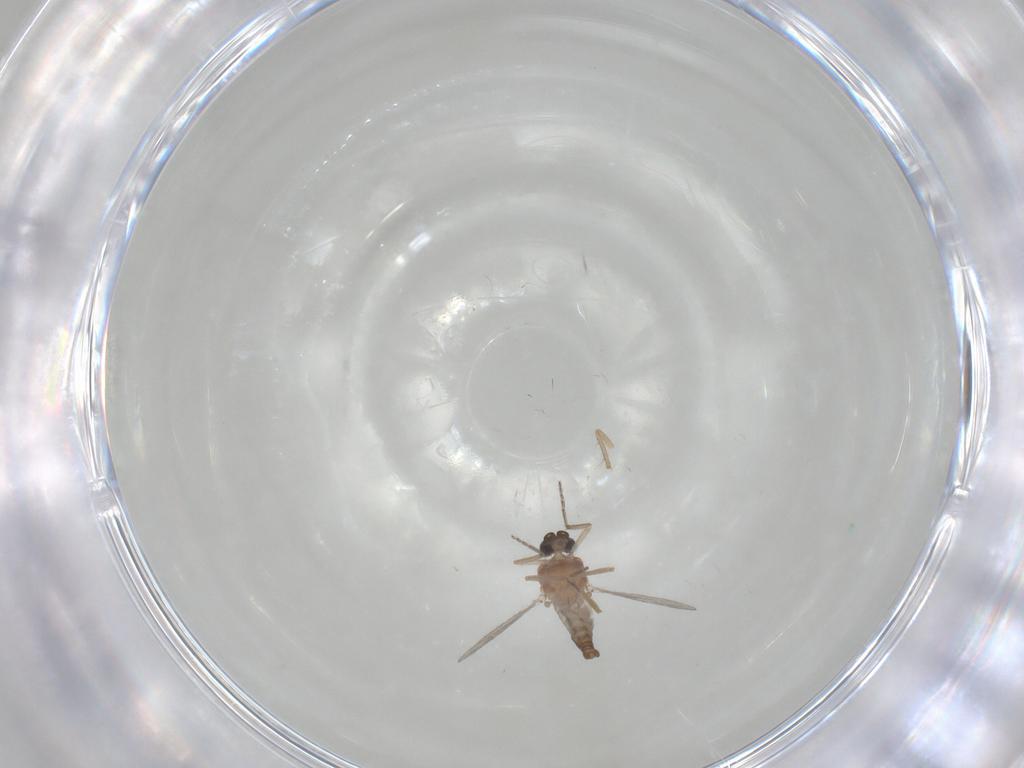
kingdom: Animalia
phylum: Arthropoda
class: Insecta
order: Diptera
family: Ceratopogonidae
